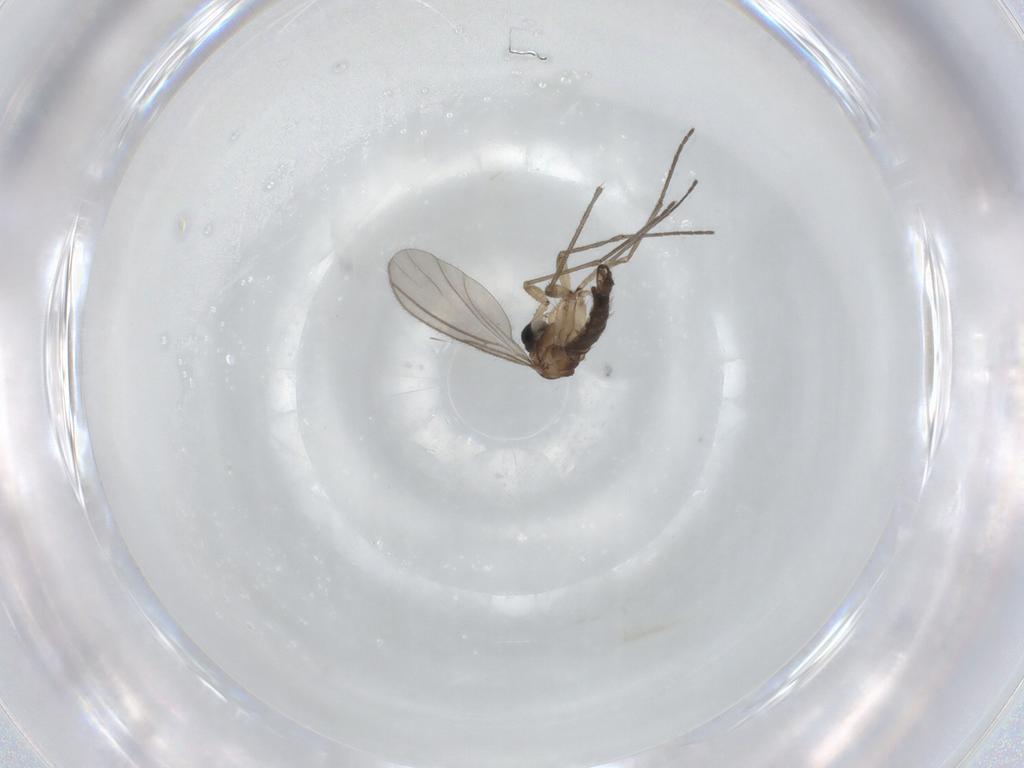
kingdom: Animalia
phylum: Arthropoda
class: Insecta
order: Diptera
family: Sciaridae
